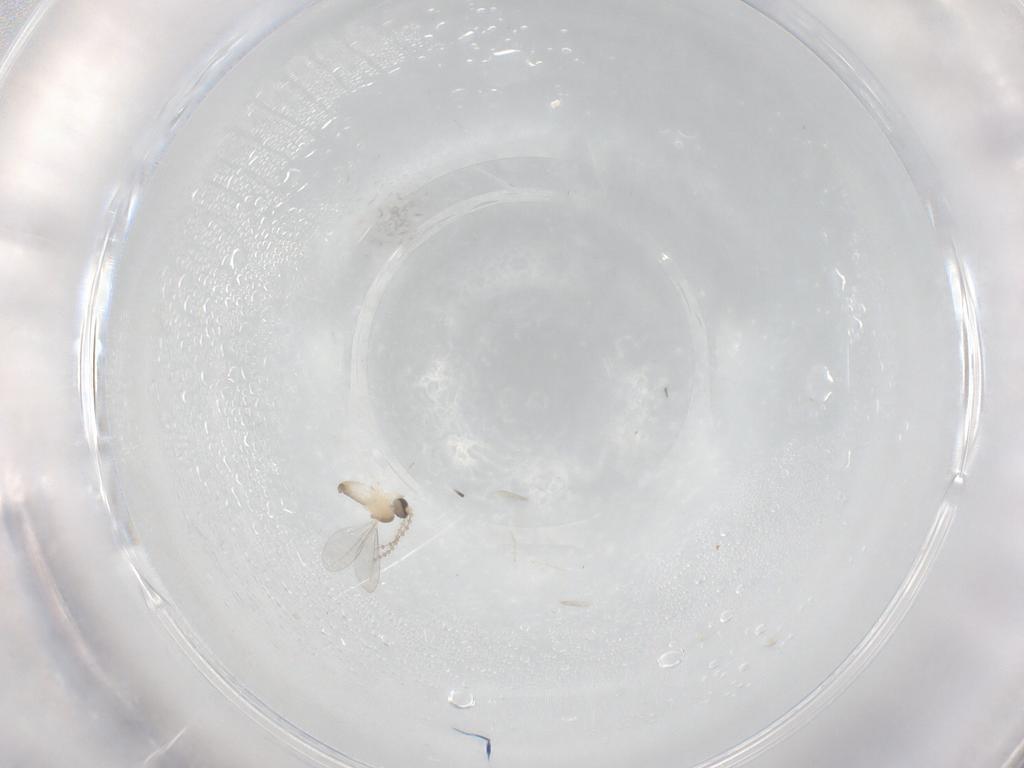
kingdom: Animalia
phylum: Arthropoda
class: Insecta
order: Diptera
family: Cecidomyiidae
